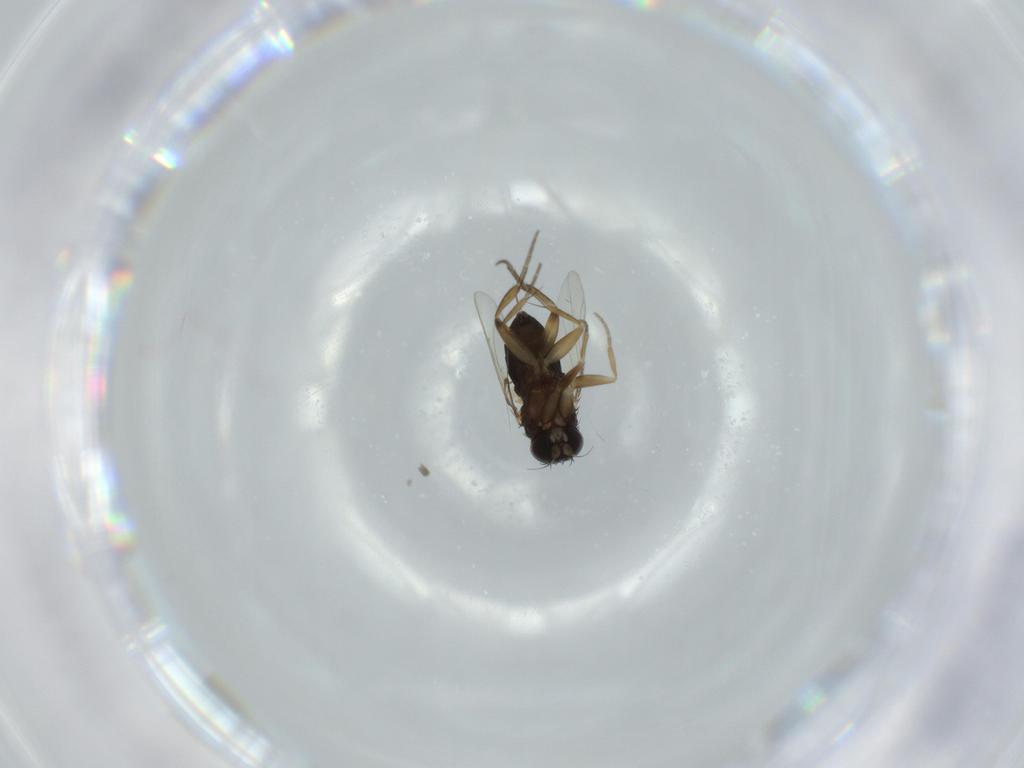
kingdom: Animalia
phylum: Arthropoda
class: Insecta
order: Diptera
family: Phoridae
